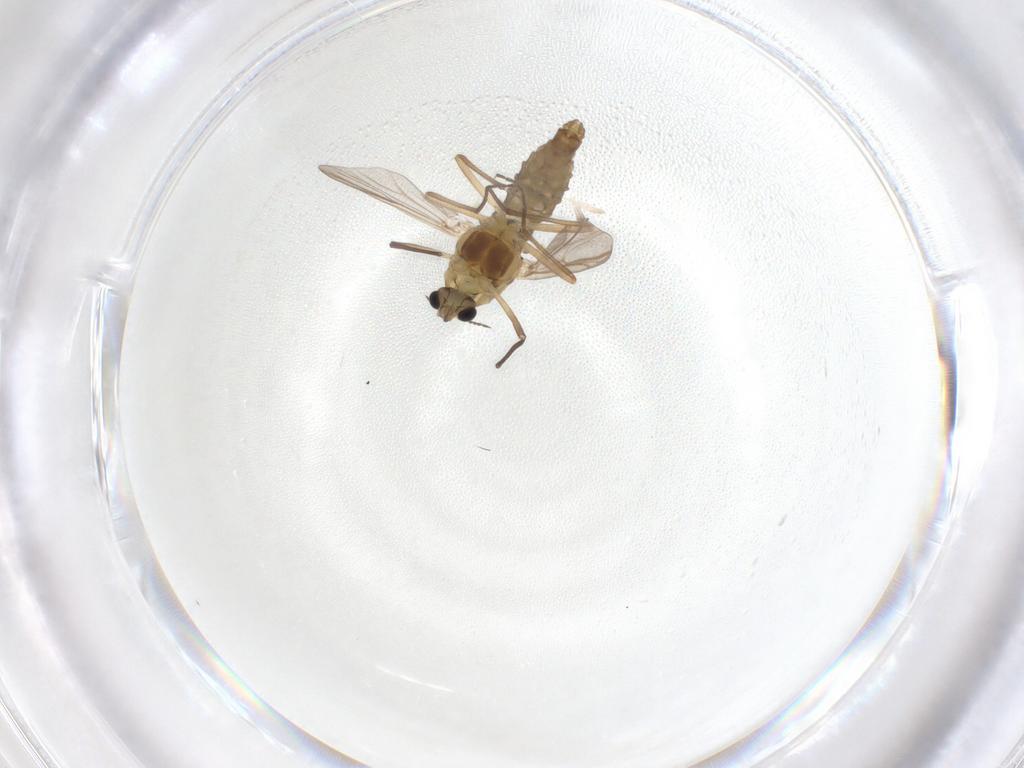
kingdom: Animalia
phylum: Arthropoda
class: Insecta
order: Diptera
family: Chironomidae
